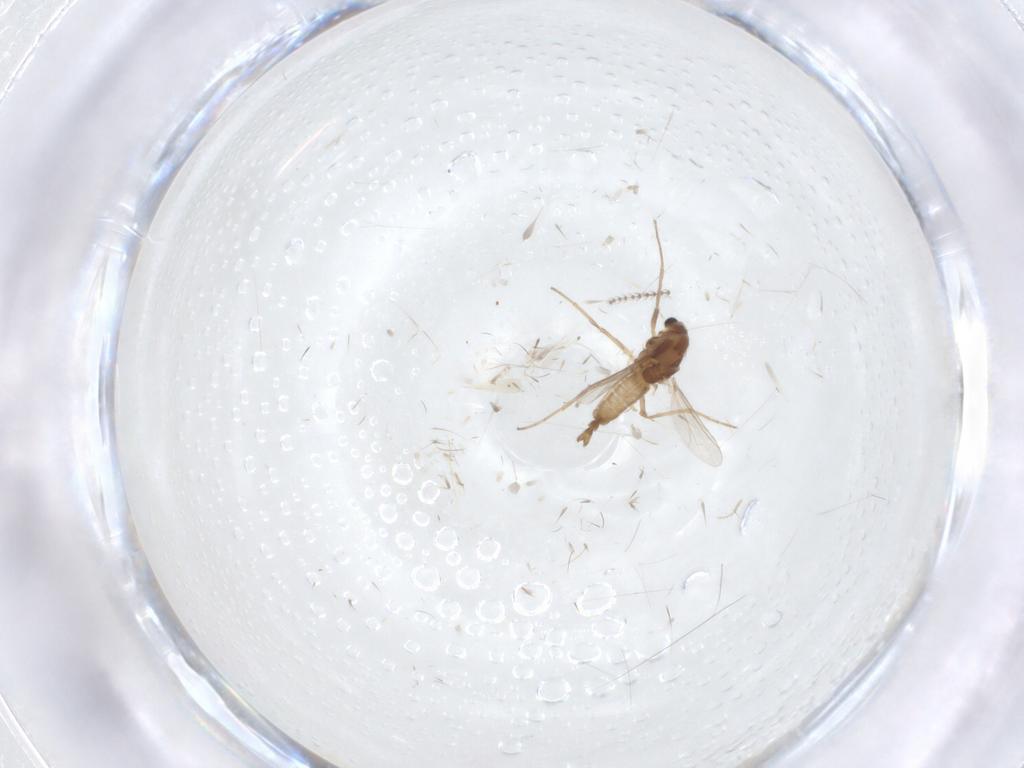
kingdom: Animalia
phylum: Arthropoda
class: Insecta
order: Diptera
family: Chironomidae
